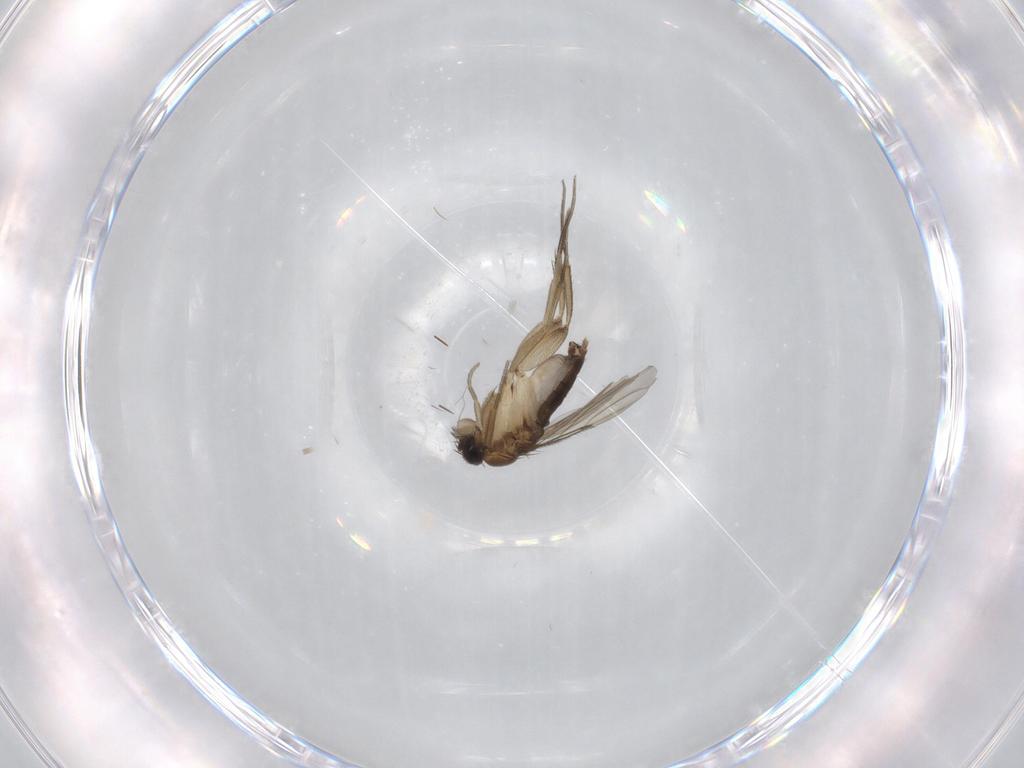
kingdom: Animalia
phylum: Arthropoda
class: Insecta
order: Diptera
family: Phoridae
